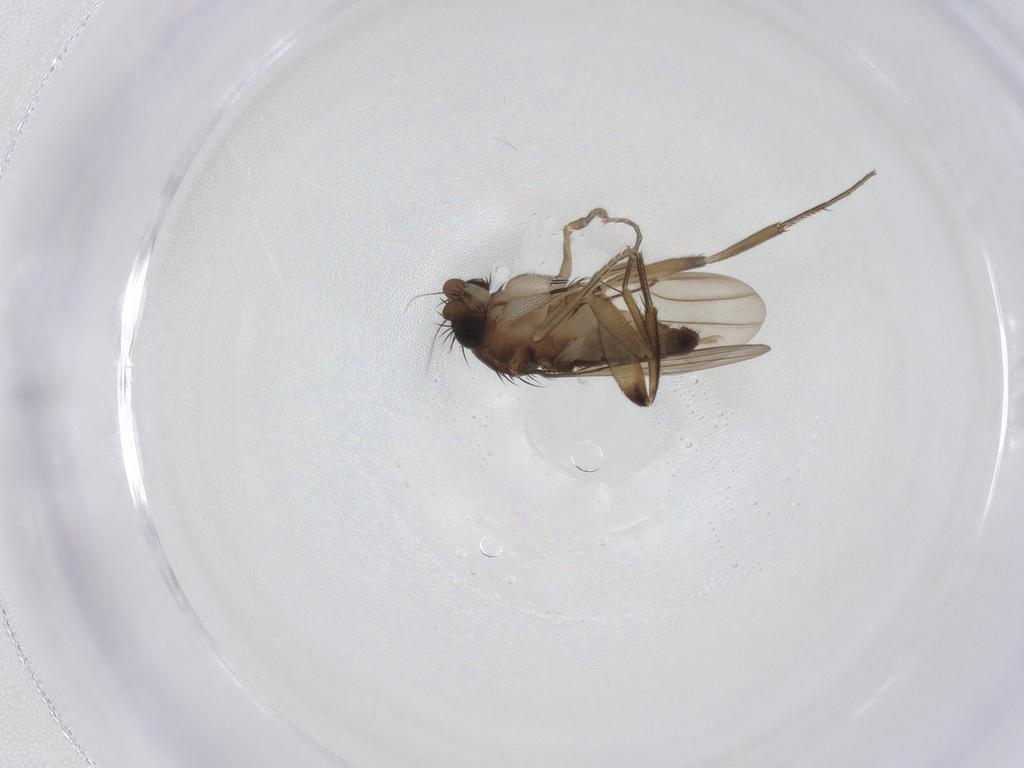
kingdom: Animalia
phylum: Arthropoda
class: Insecta
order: Diptera
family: Phoridae
